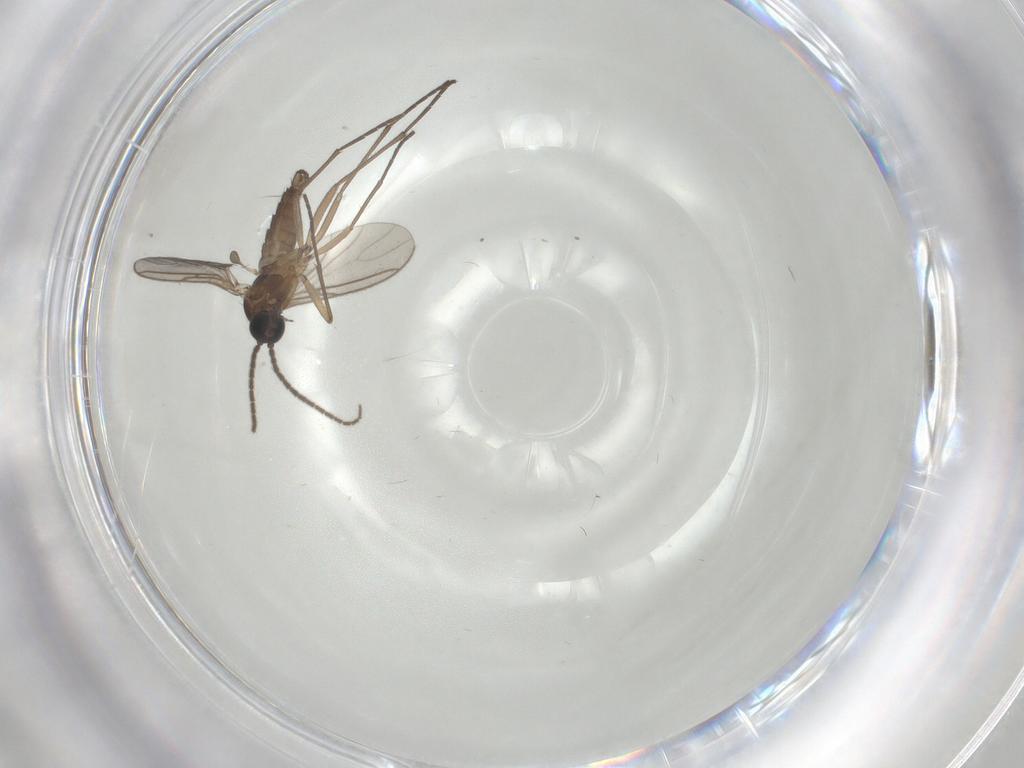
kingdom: Animalia
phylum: Arthropoda
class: Insecta
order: Diptera
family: Sciaridae
